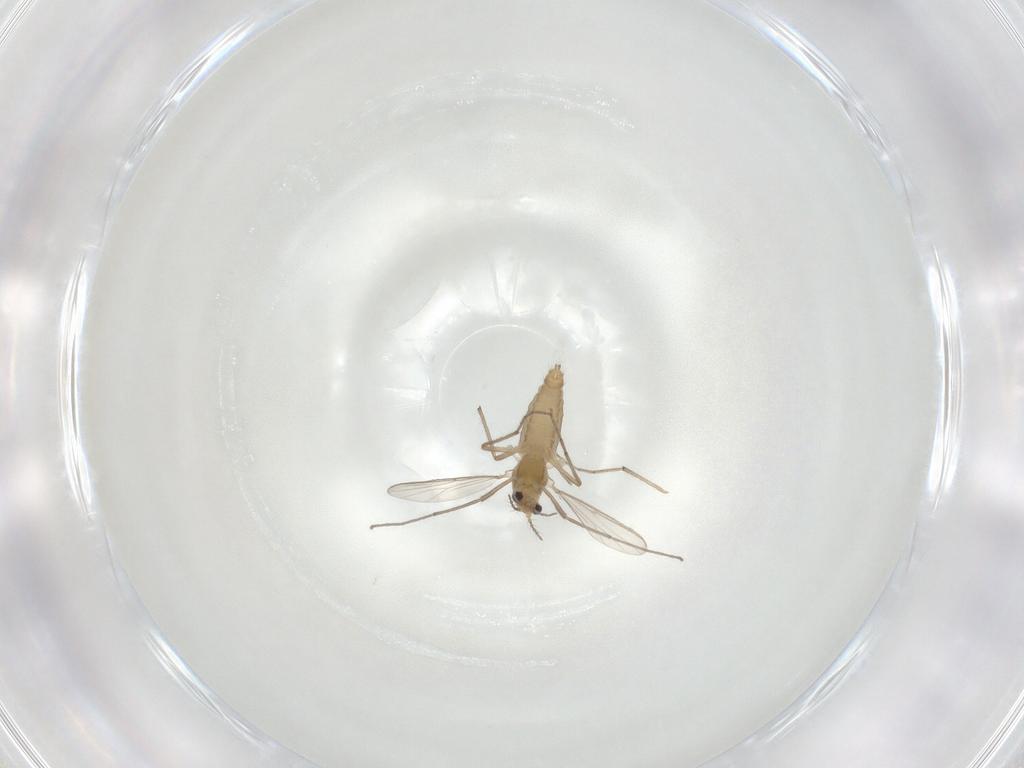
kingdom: Animalia
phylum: Arthropoda
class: Insecta
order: Diptera
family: Chironomidae
